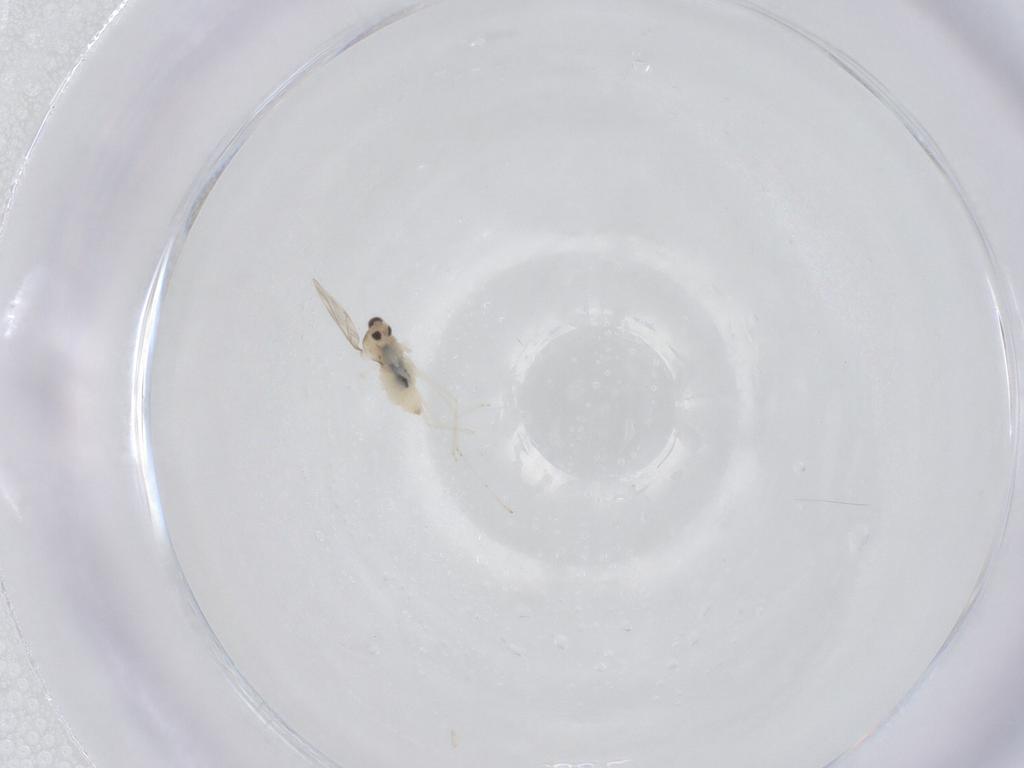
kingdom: Animalia
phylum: Arthropoda
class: Insecta
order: Diptera
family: Cecidomyiidae
